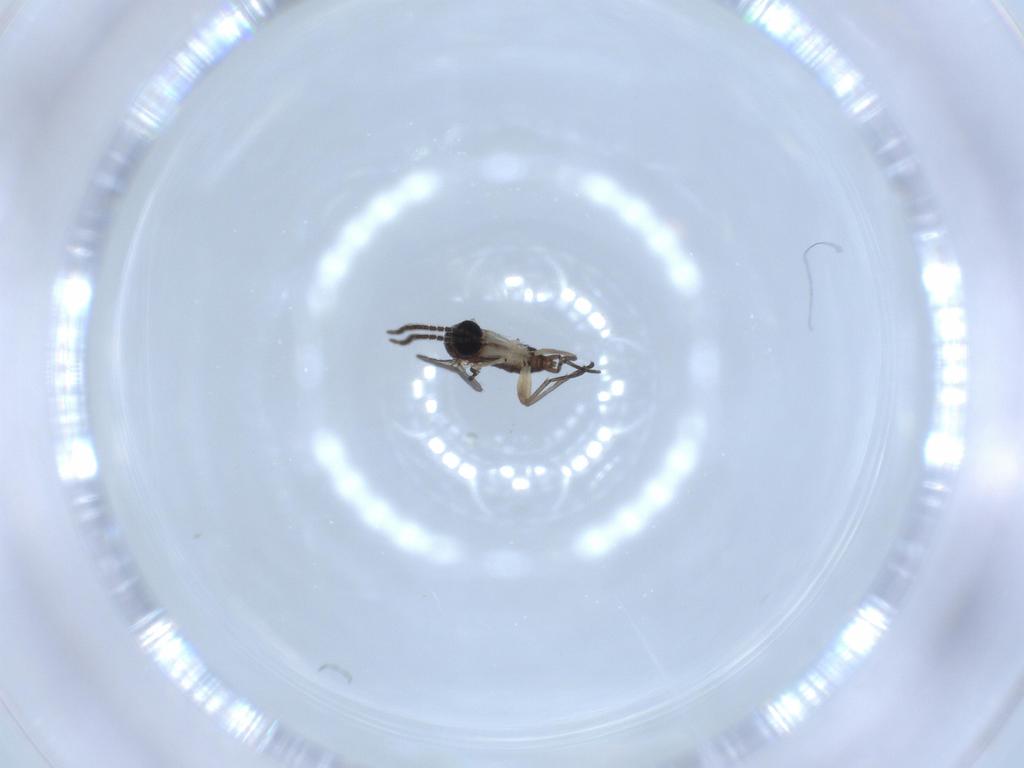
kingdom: Animalia
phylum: Arthropoda
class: Insecta
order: Diptera
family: Sciaridae
